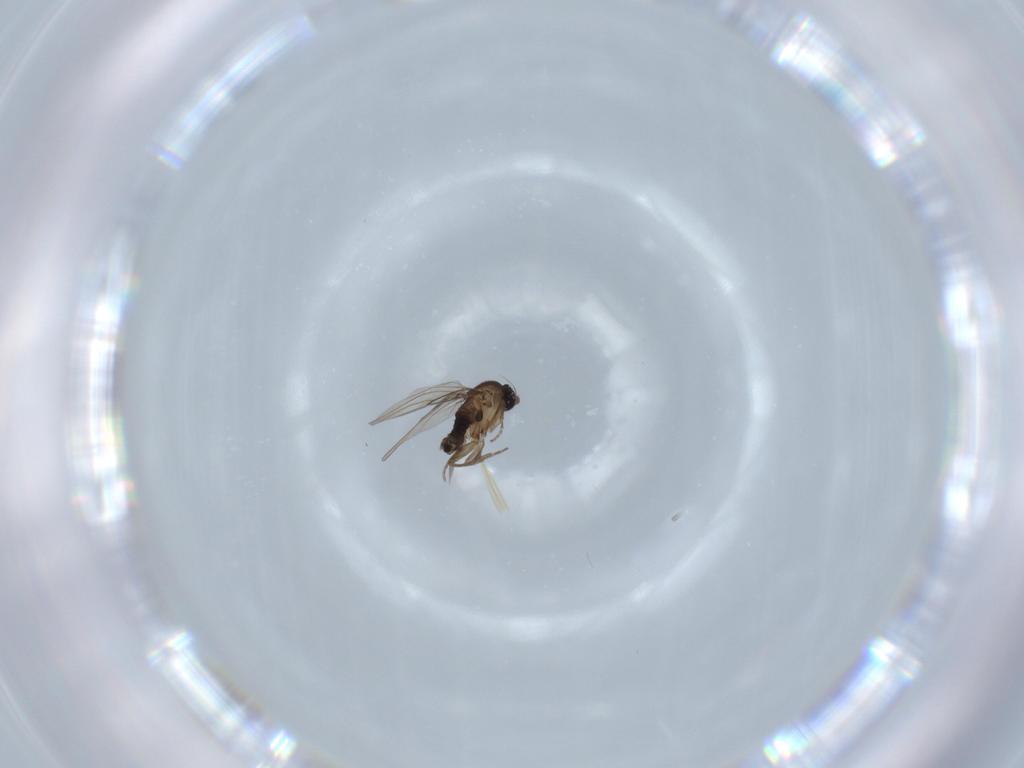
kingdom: Animalia
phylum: Arthropoda
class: Insecta
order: Diptera
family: Phoridae
